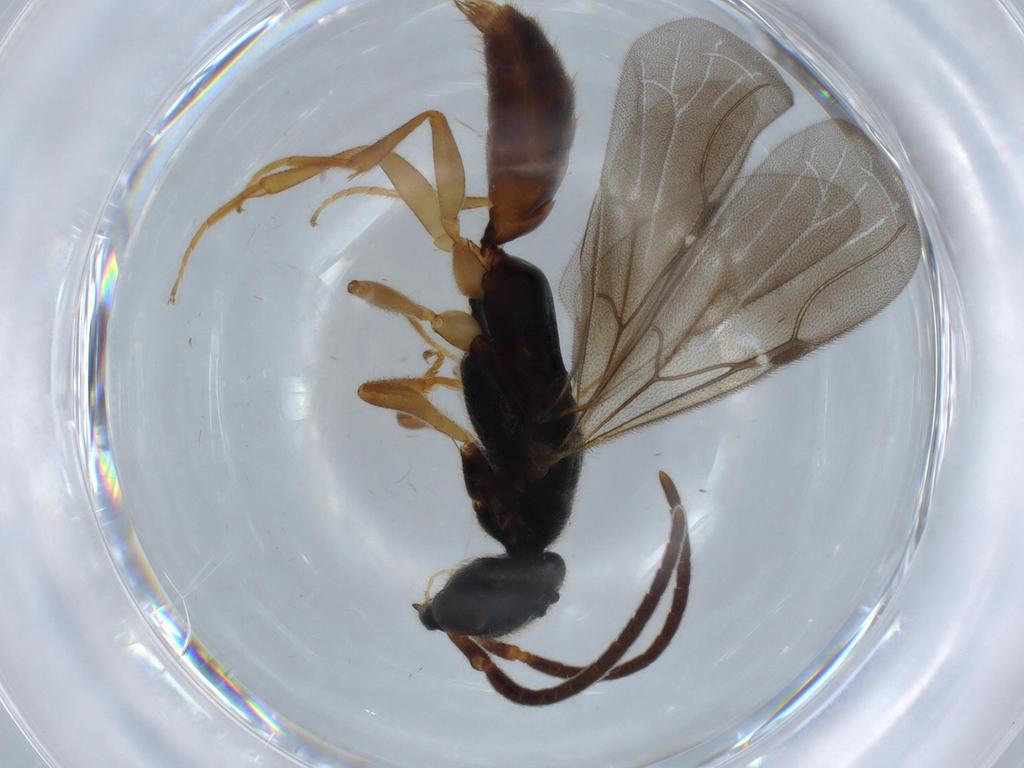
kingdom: Animalia
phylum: Arthropoda
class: Insecta
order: Hymenoptera
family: Bethylidae
